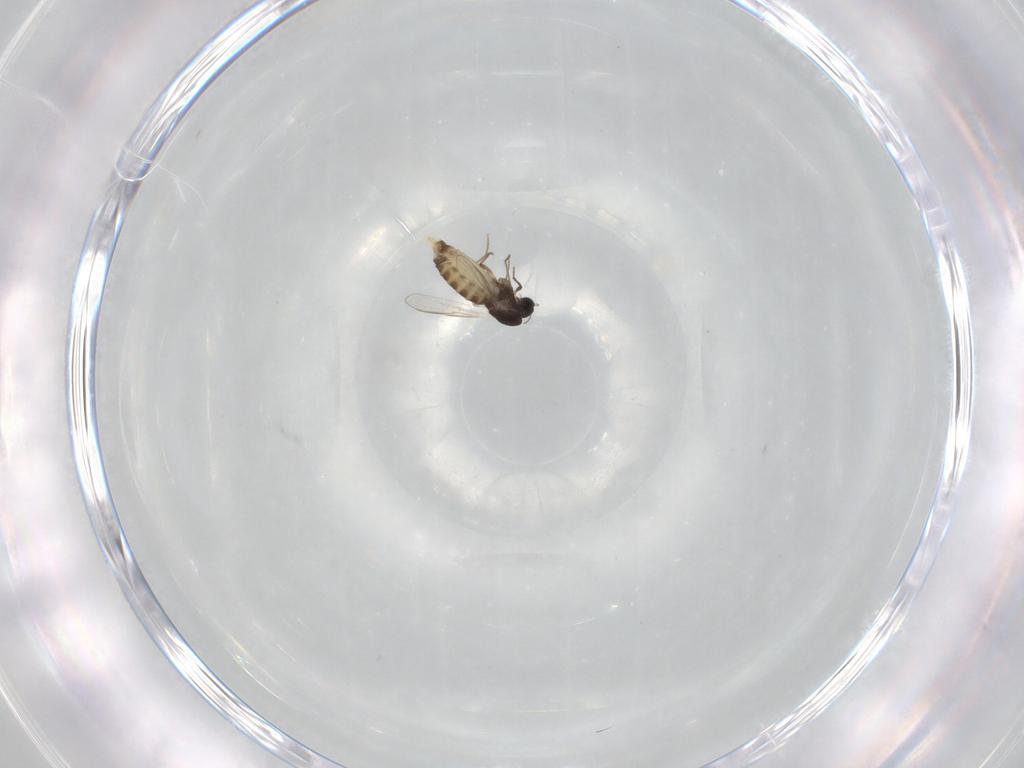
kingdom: Animalia
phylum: Arthropoda
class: Insecta
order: Diptera
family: Chironomidae
